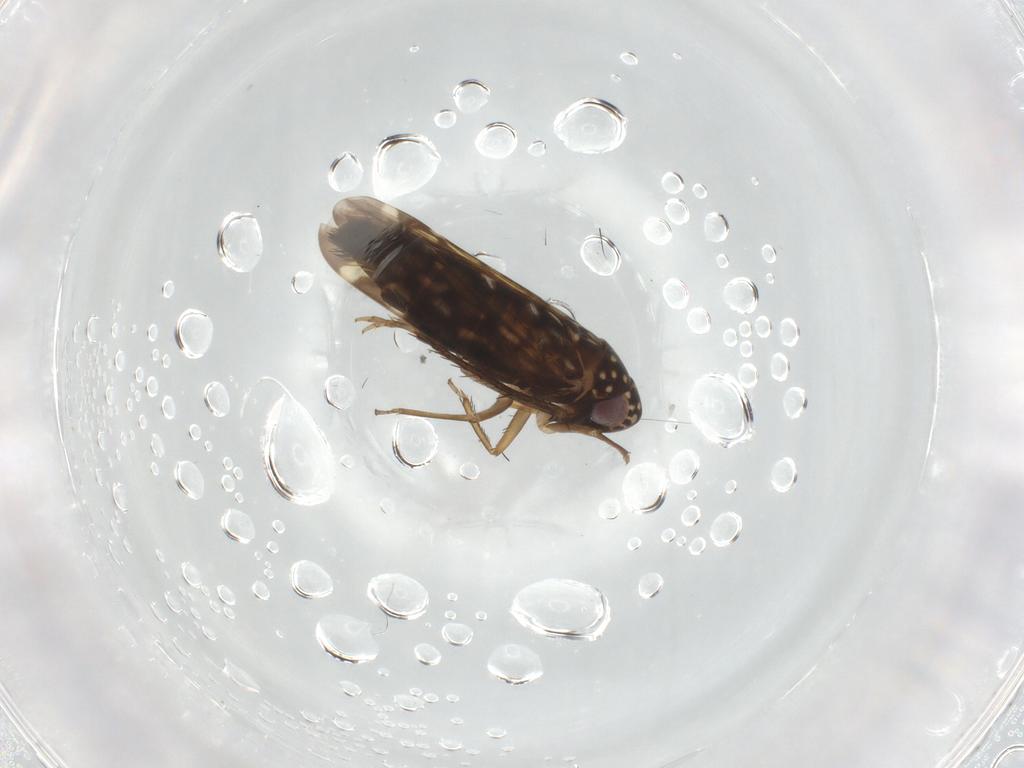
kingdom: Animalia
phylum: Arthropoda
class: Insecta
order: Hemiptera
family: Cicadellidae
